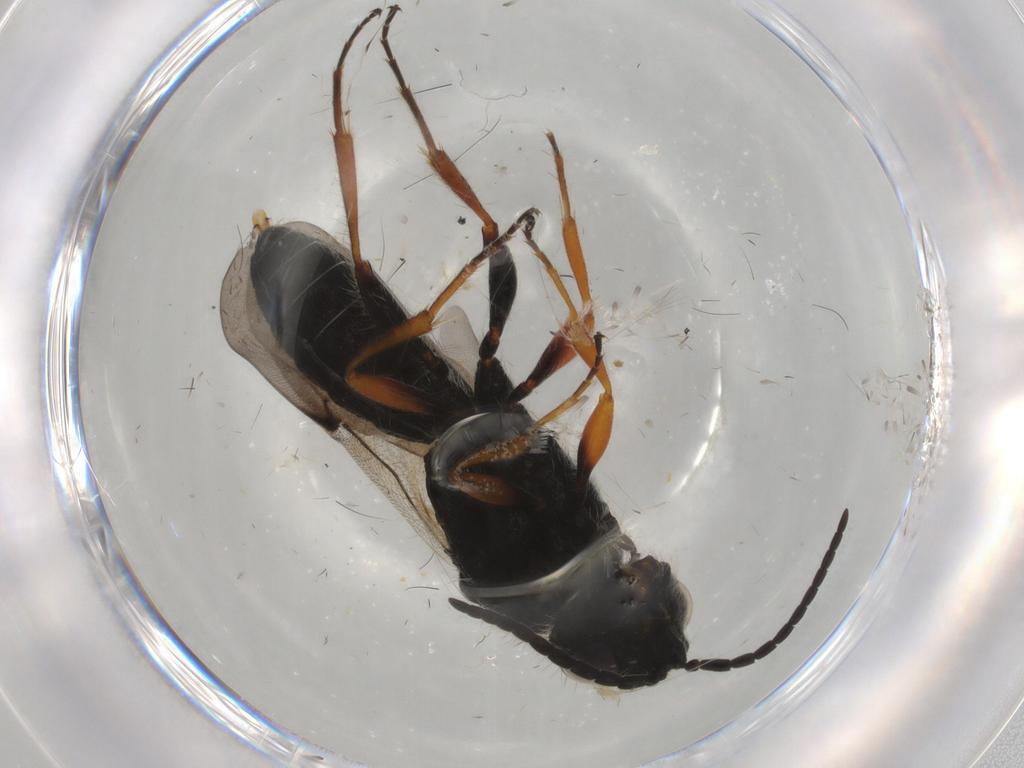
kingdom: Animalia
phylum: Arthropoda
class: Insecta
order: Hymenoptera
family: Scelionidae
